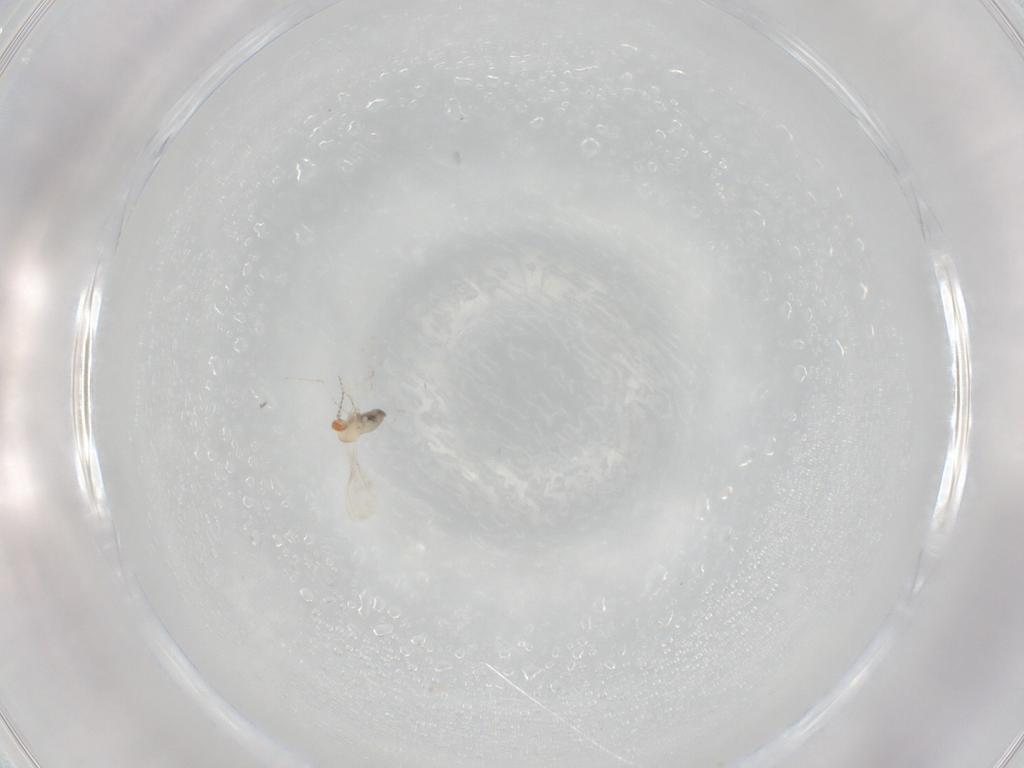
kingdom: Animalia
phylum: Arthropoda
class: Insecta
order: Diptera
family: Cecidomyiidae
